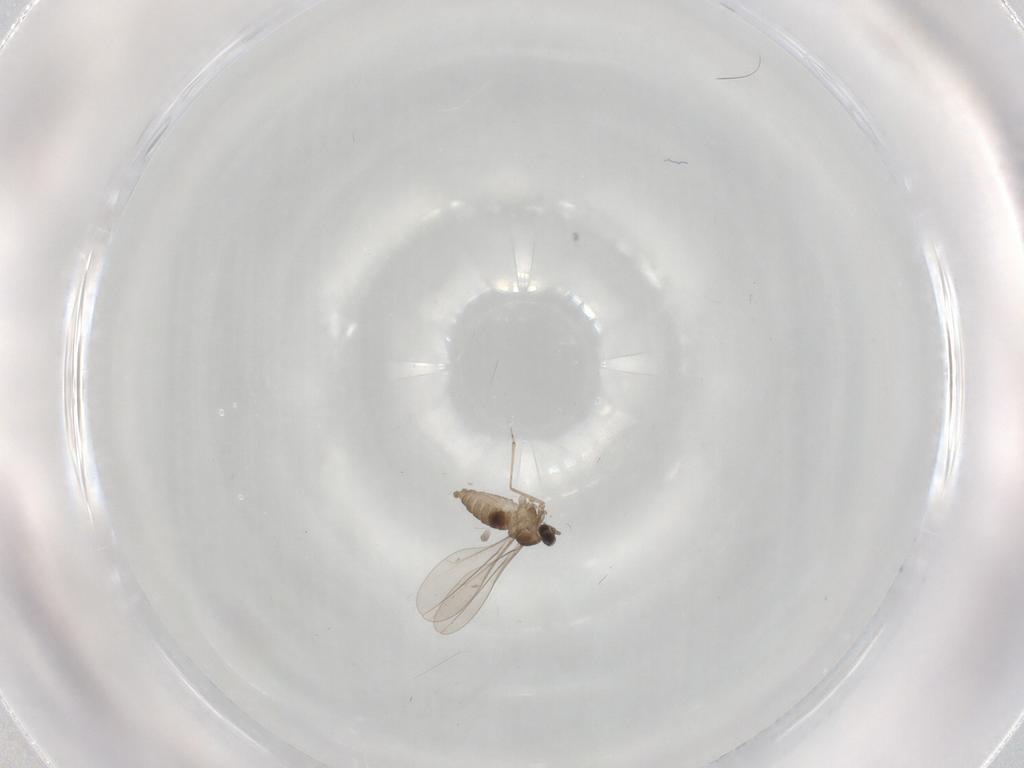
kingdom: Animalia
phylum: Arthropoda
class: Insecta
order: Diptera
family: Cecidomyiidae
